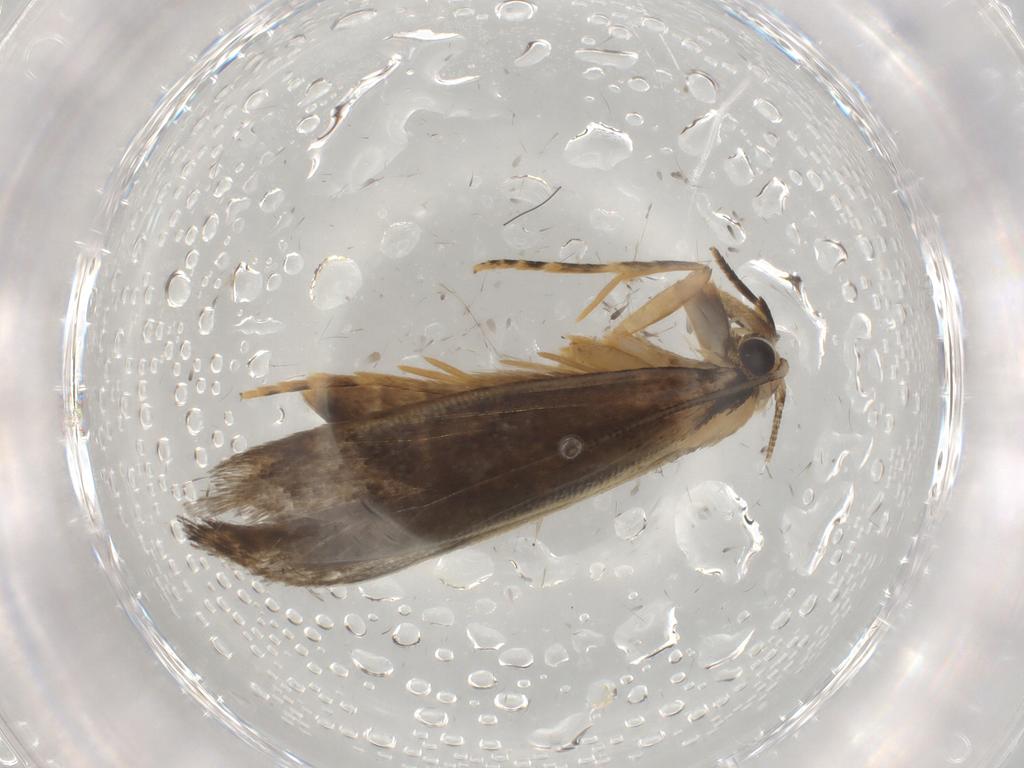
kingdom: Animalia
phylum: Arthropoda
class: Insecta
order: Lepidoptera
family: Tineidae
